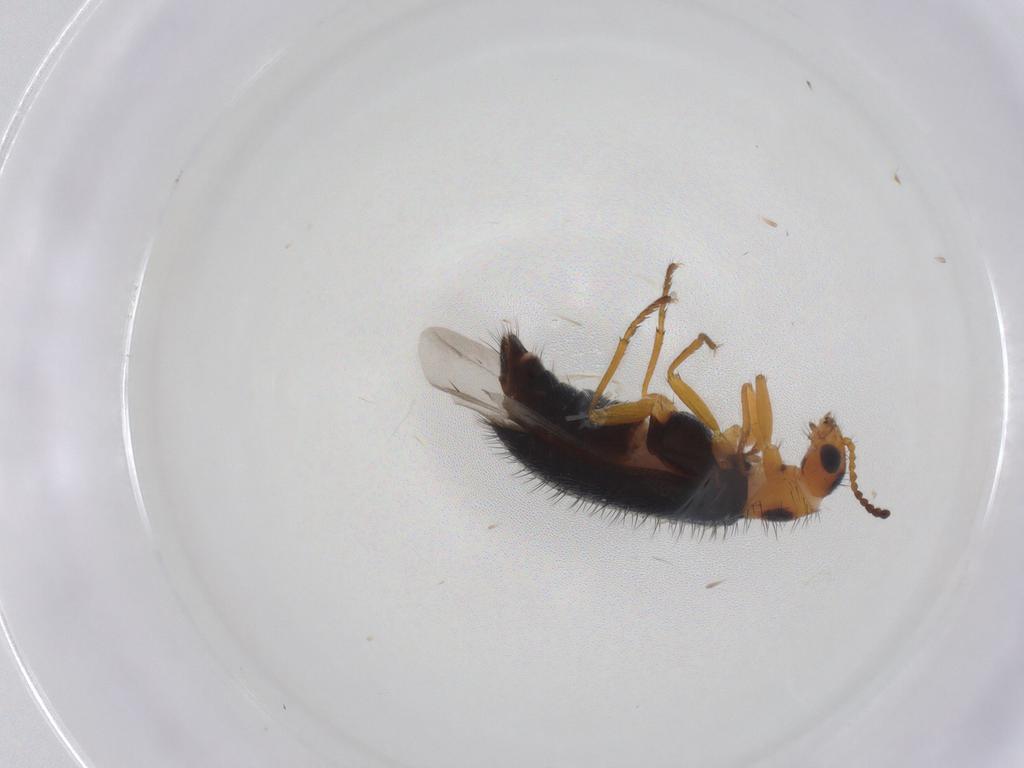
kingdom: Animalia
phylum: Arthropoda
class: Insecta
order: Coleoptera
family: Melyridae
